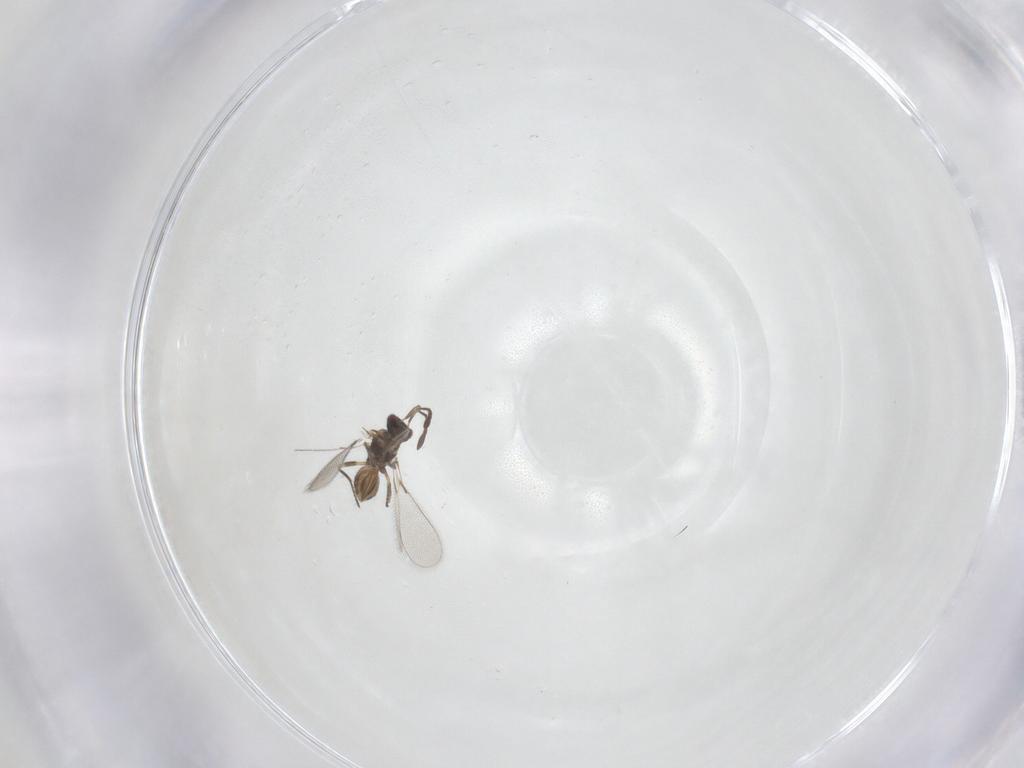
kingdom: Animalia
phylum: Arthropoda
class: Insecta
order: Hymenoptera
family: Mymaridae
